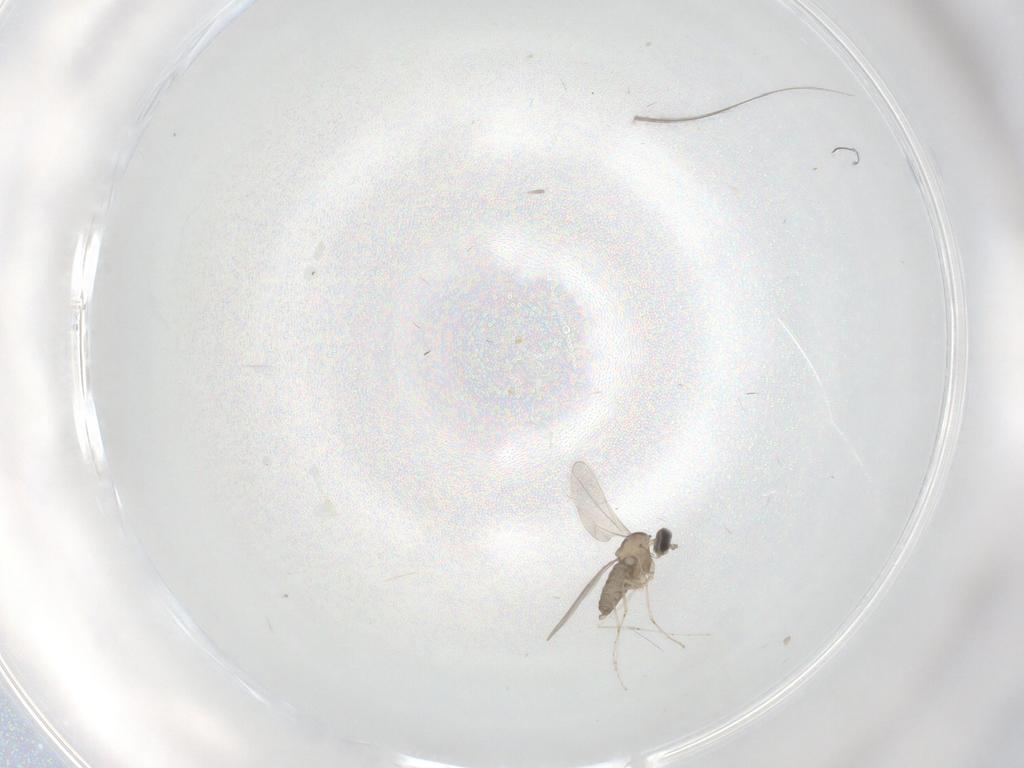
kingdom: Animalia
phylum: Arthropoda
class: Insecta
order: Diptera
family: Cecidomyiidae
